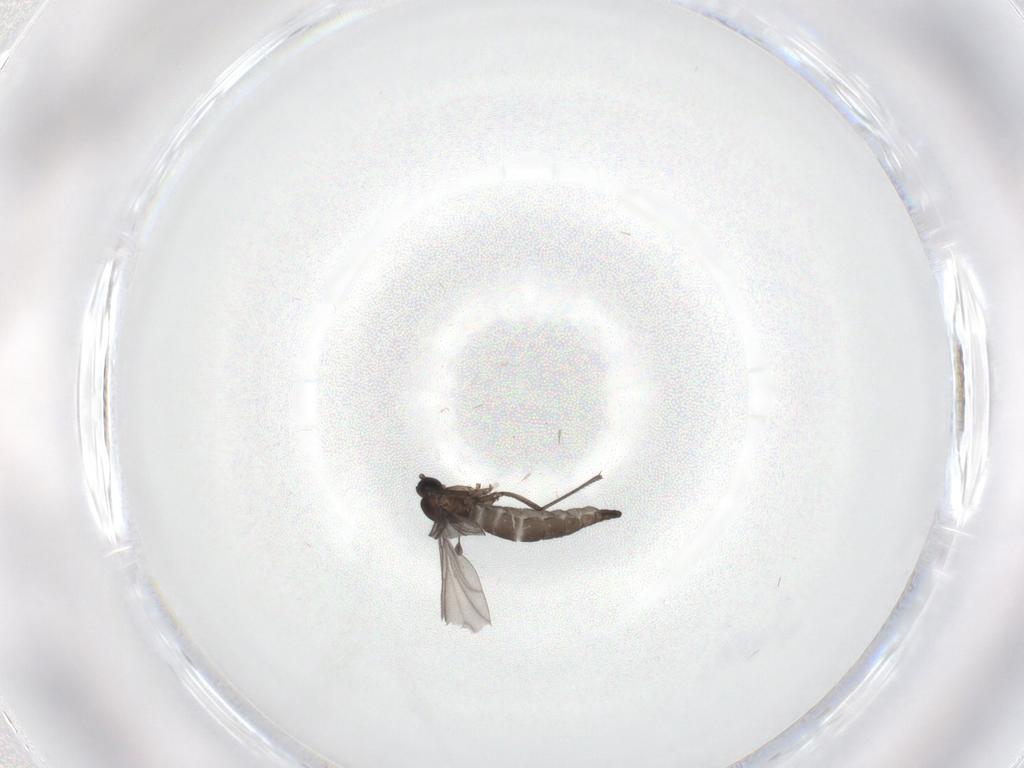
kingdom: Animalia
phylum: Arthropoda
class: Insecta
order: Diptera
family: Sciaridae
